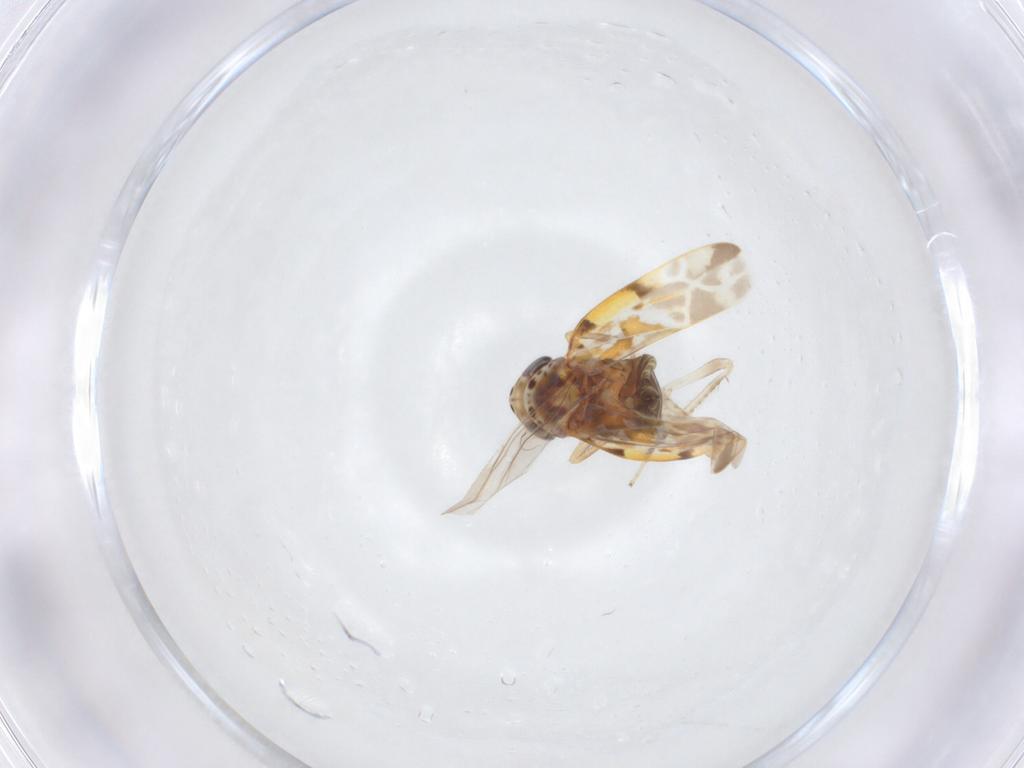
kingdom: Animalia
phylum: Arthropoda
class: Insecta
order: Hemiptera
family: Cicadellidae
